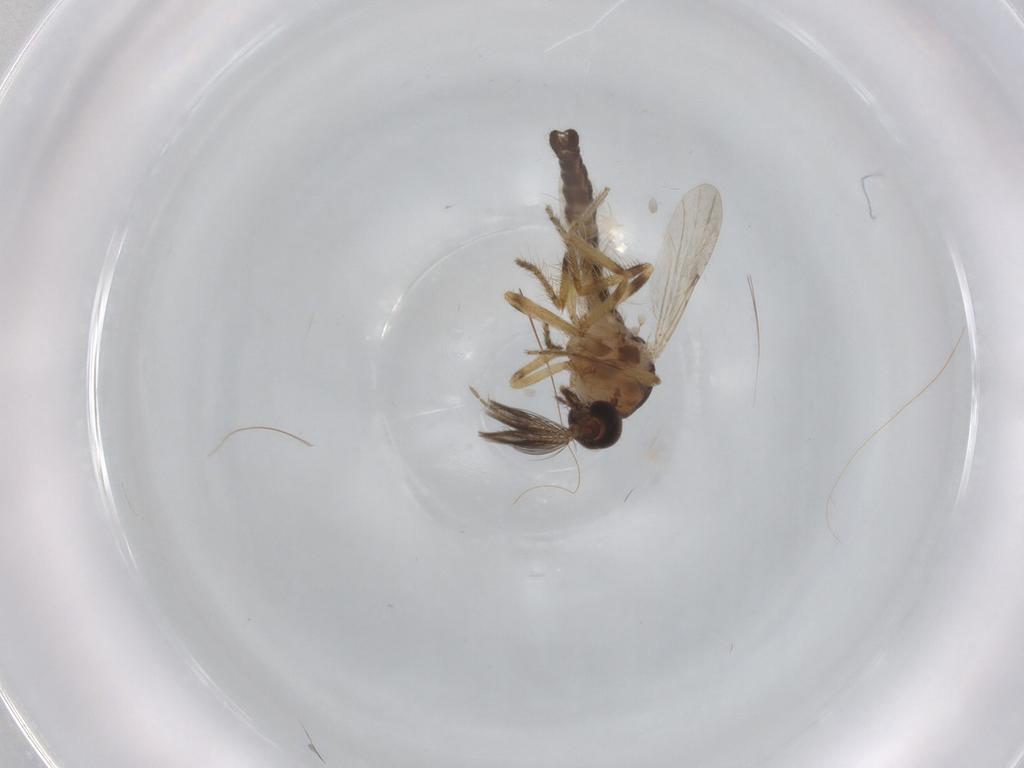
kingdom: Animalia
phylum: Arthropoda
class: Insecta
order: Diptera
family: Ceratopogonidae
